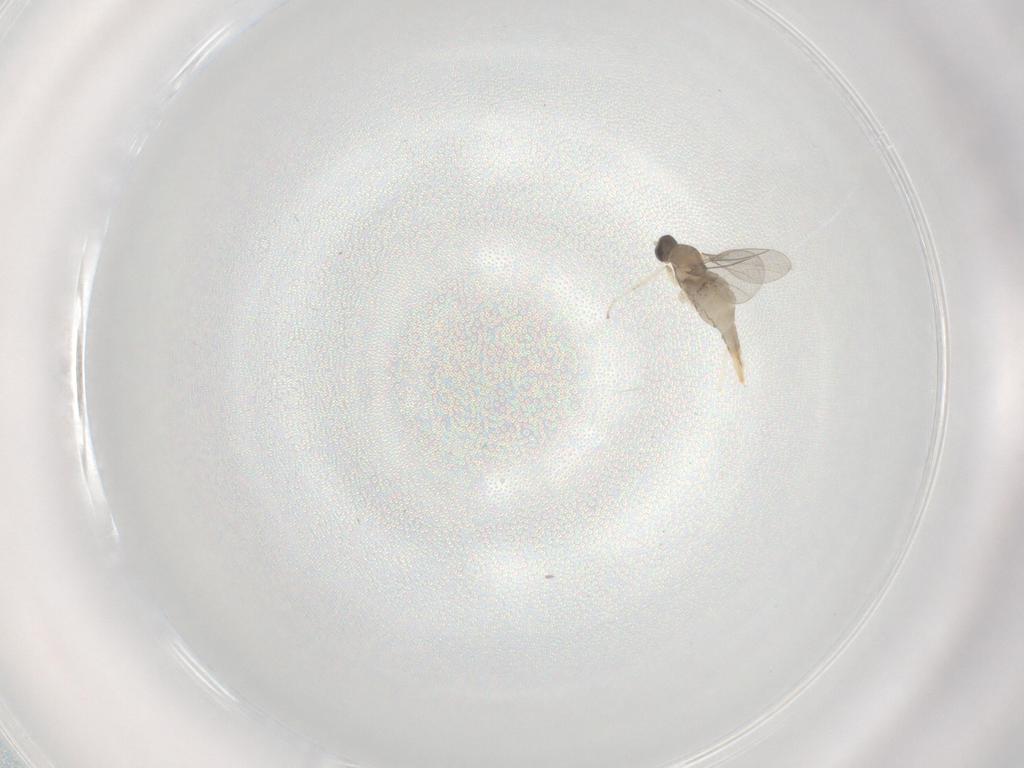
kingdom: Animalia
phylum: Arthropoda
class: Insecta
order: Diptera
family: Cecidomyiidae
